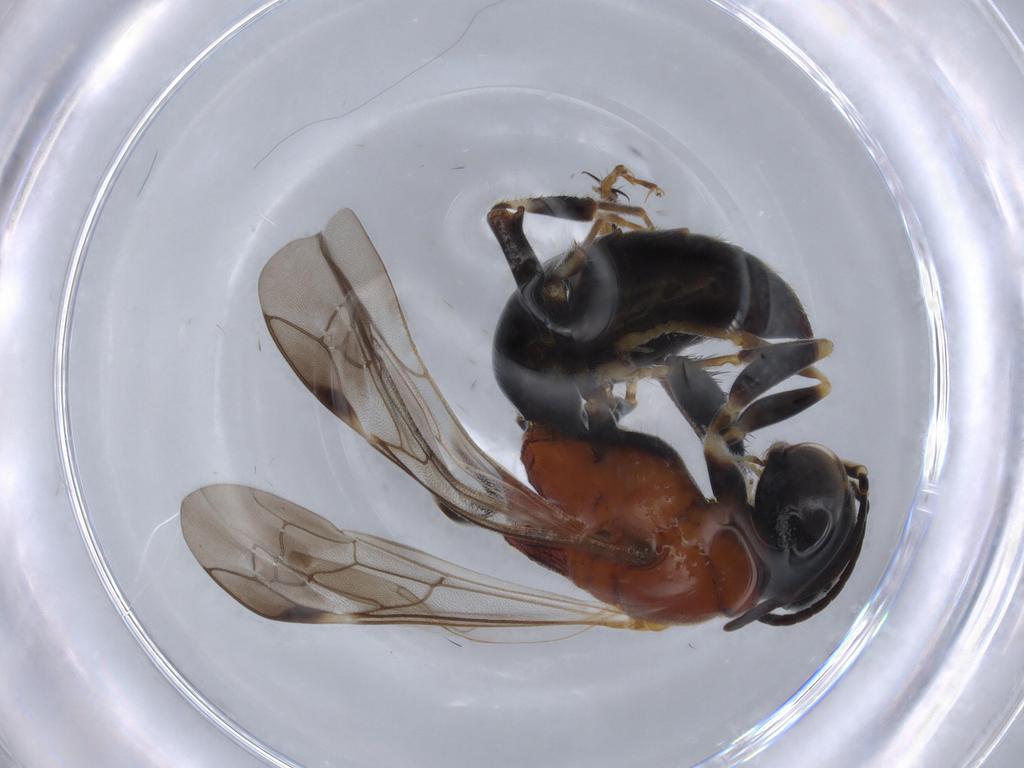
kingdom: Animalia
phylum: Arthropoda
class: Insecta
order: Hymenoptera
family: Bembicidae
